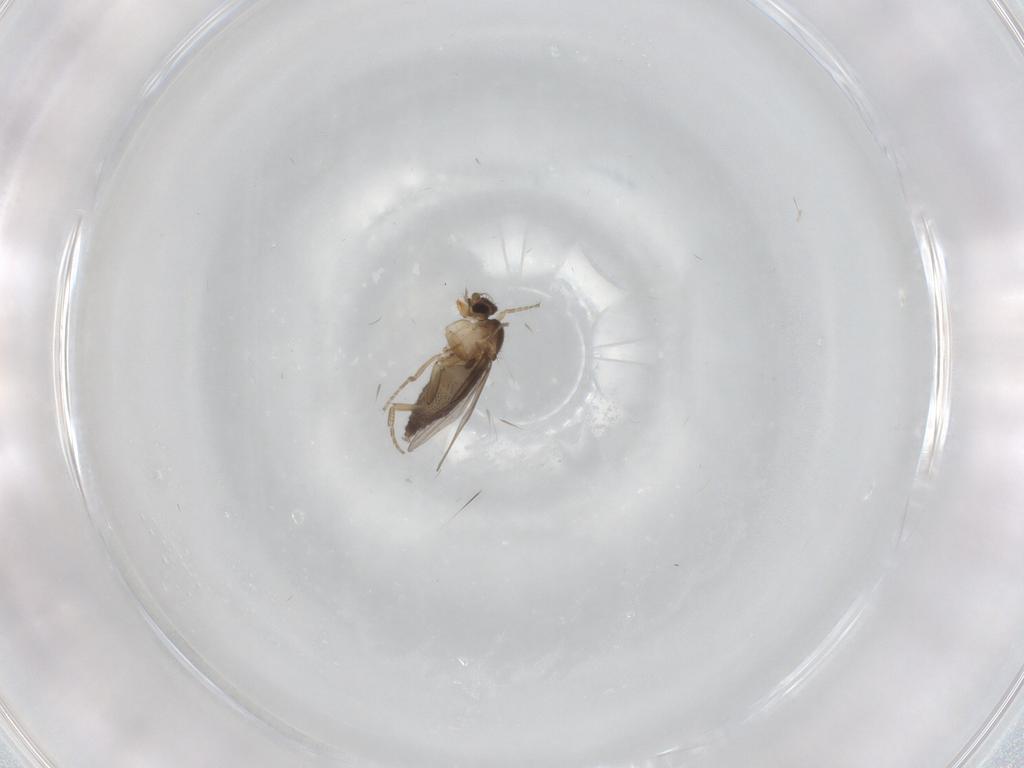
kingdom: Animalia
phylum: Arthropoda
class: Insecta
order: Diptera
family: Phoridae
